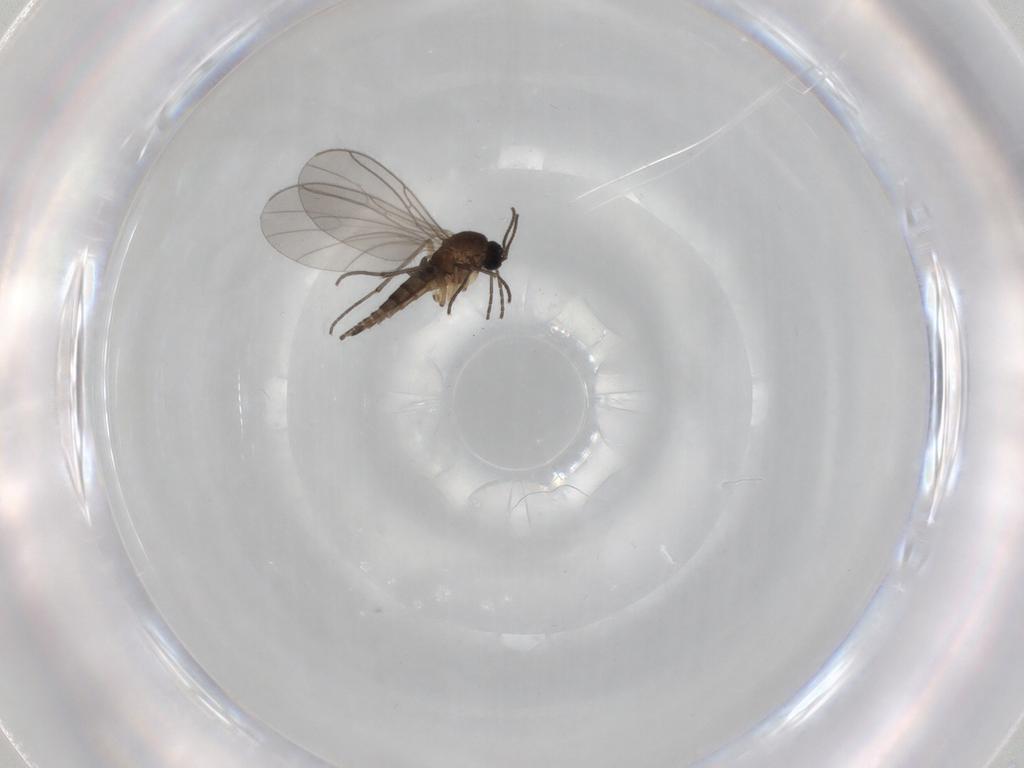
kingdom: Animalia
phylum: Arthropoda
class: Insecta
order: Diptera
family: Sciaridae
